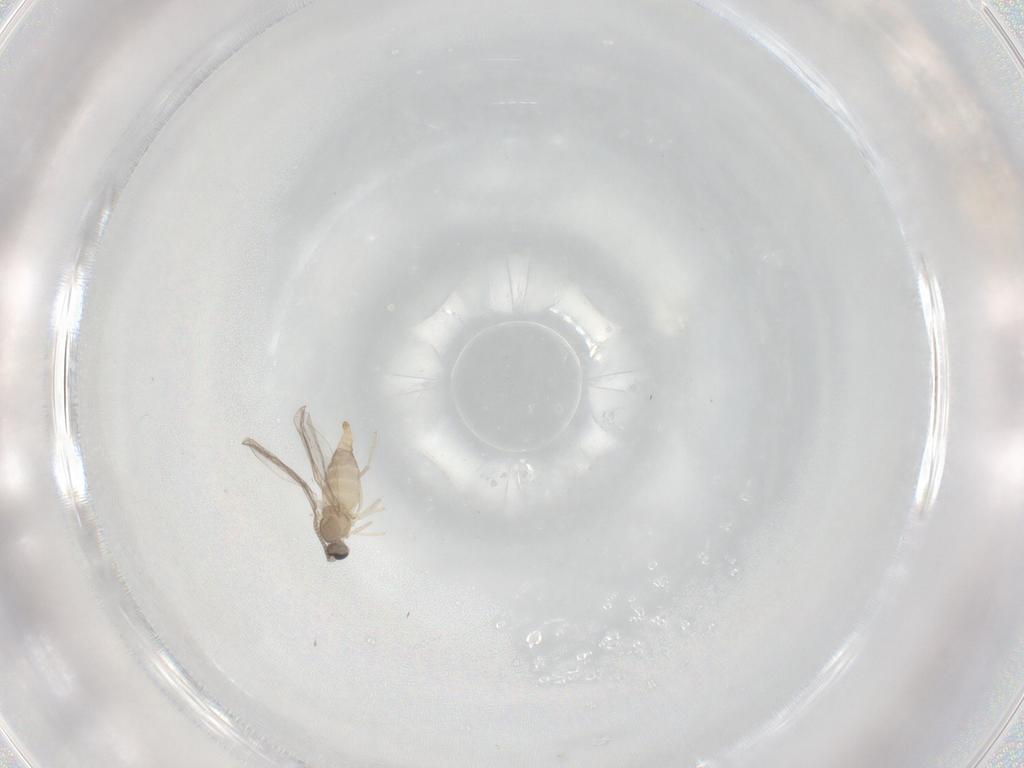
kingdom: Animalia
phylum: Arthropoda
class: Insecta
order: Diptera
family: Cecidomyiidae
